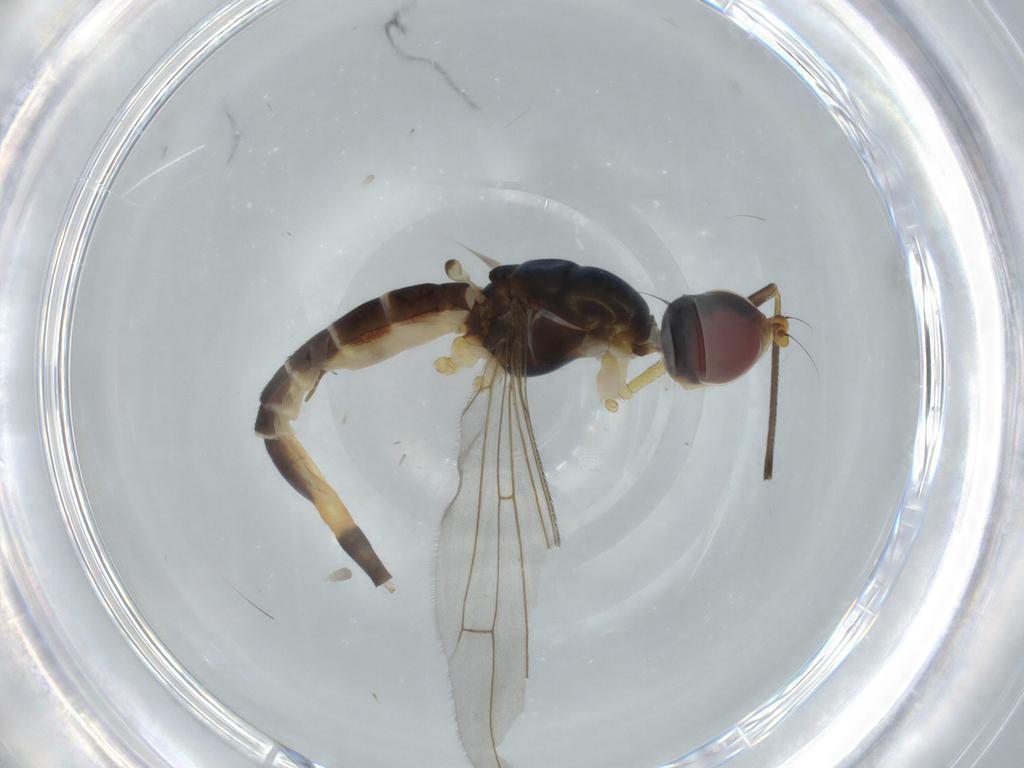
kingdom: Animalia
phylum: Arthropoda
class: Insecta
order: Diptera
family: Micropezidae
